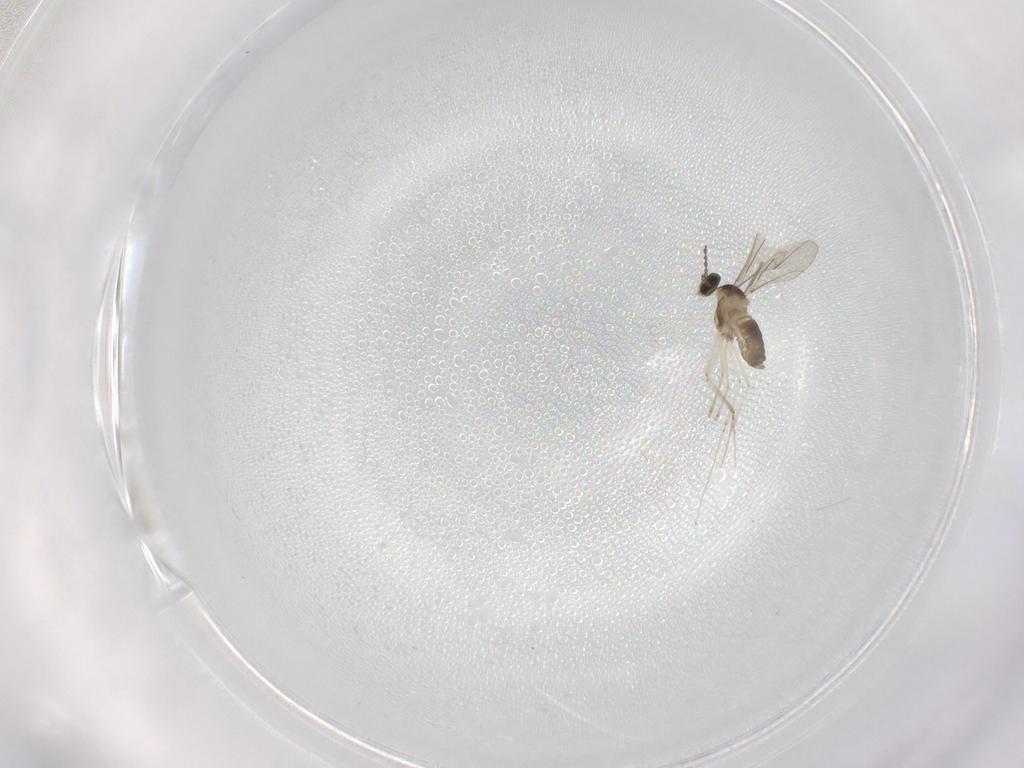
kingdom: Animalia
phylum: Arthropoda
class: Insecta
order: Diptera
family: Cecidomyiidae
